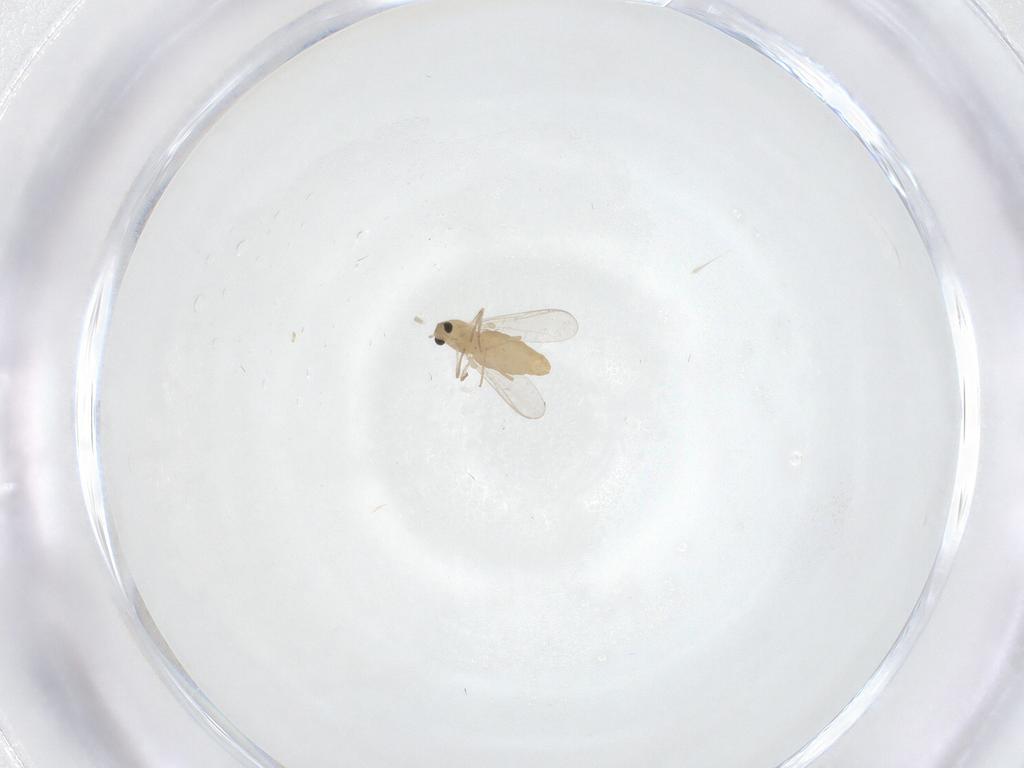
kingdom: Animalia
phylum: Arthropoda
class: Insecta
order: Diptera
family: Chironomidae
